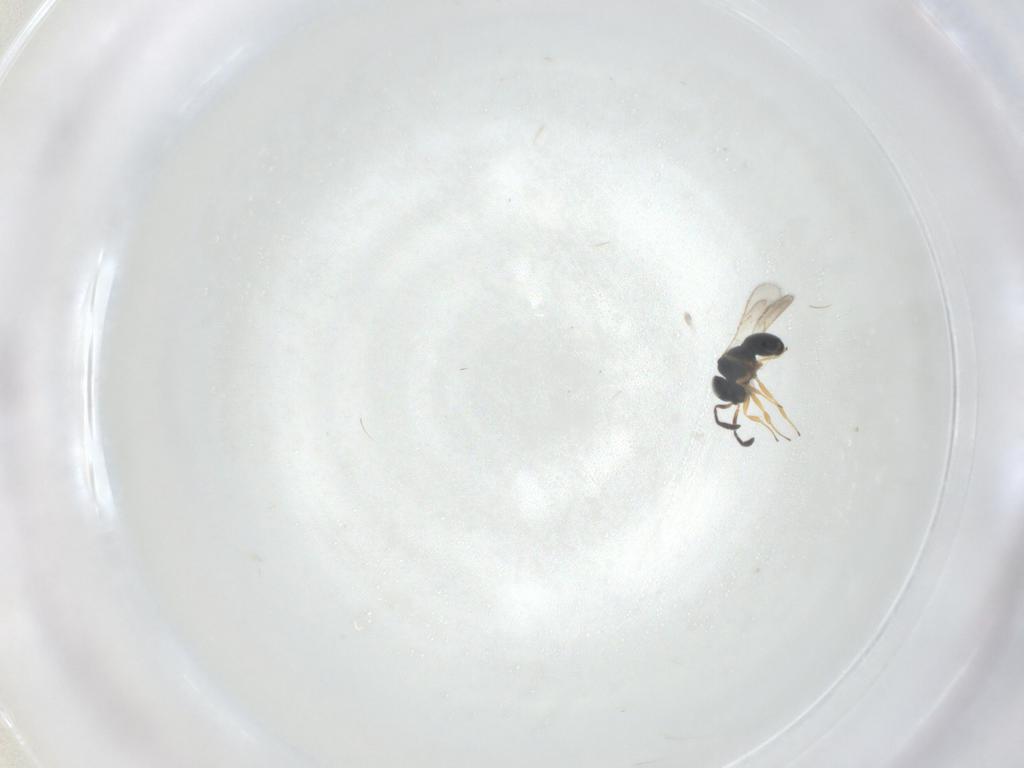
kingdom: Animalia
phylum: Arthropoda
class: Insecta
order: Hymenoptera
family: Scelionidae
